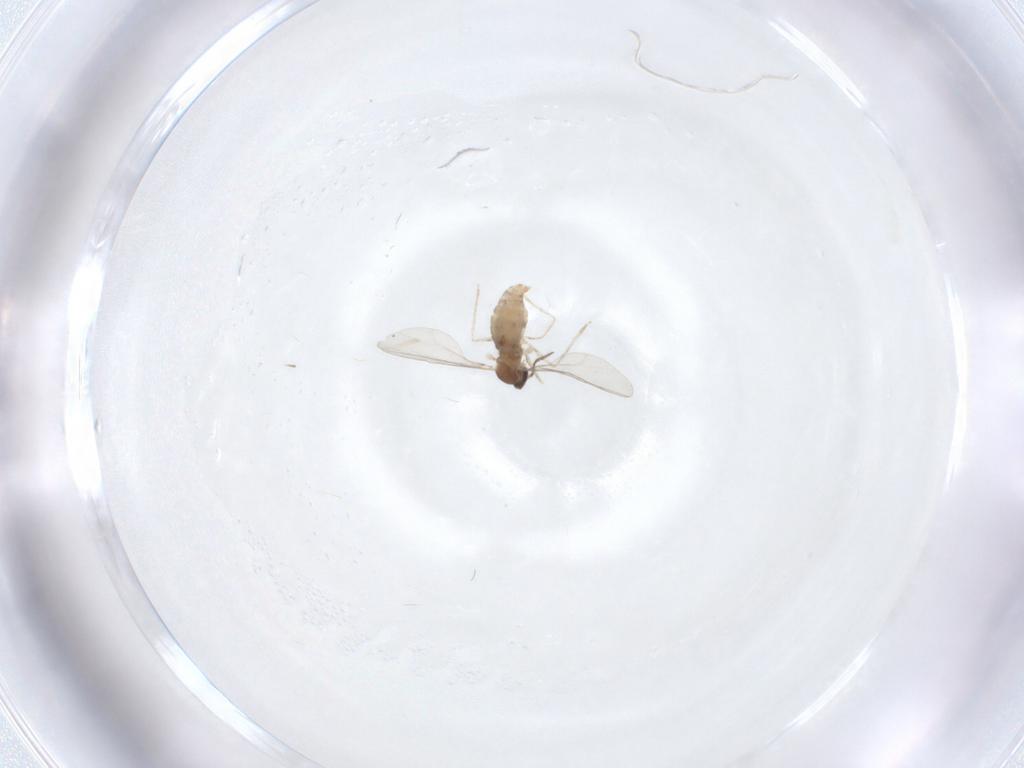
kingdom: Animalia
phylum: Arthropoda
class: Insecta
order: Diptera
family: Cecidomyiidae
